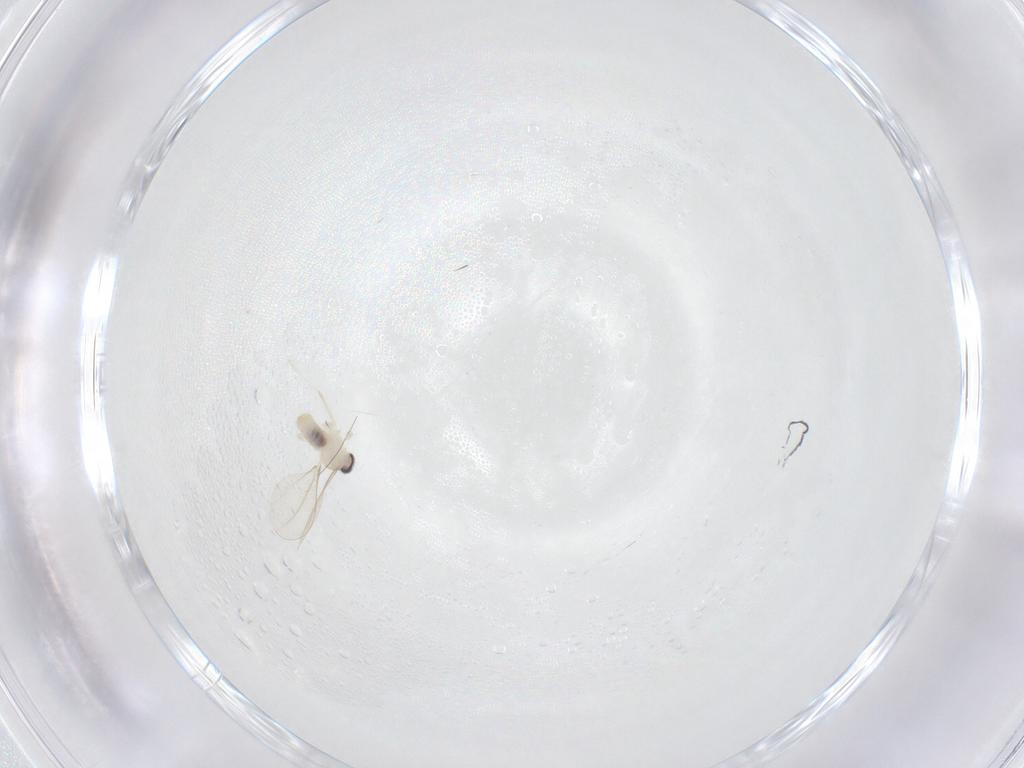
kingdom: Animalia
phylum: Arthropoda
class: Insecta
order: Diptera
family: Cecidomyiidae
